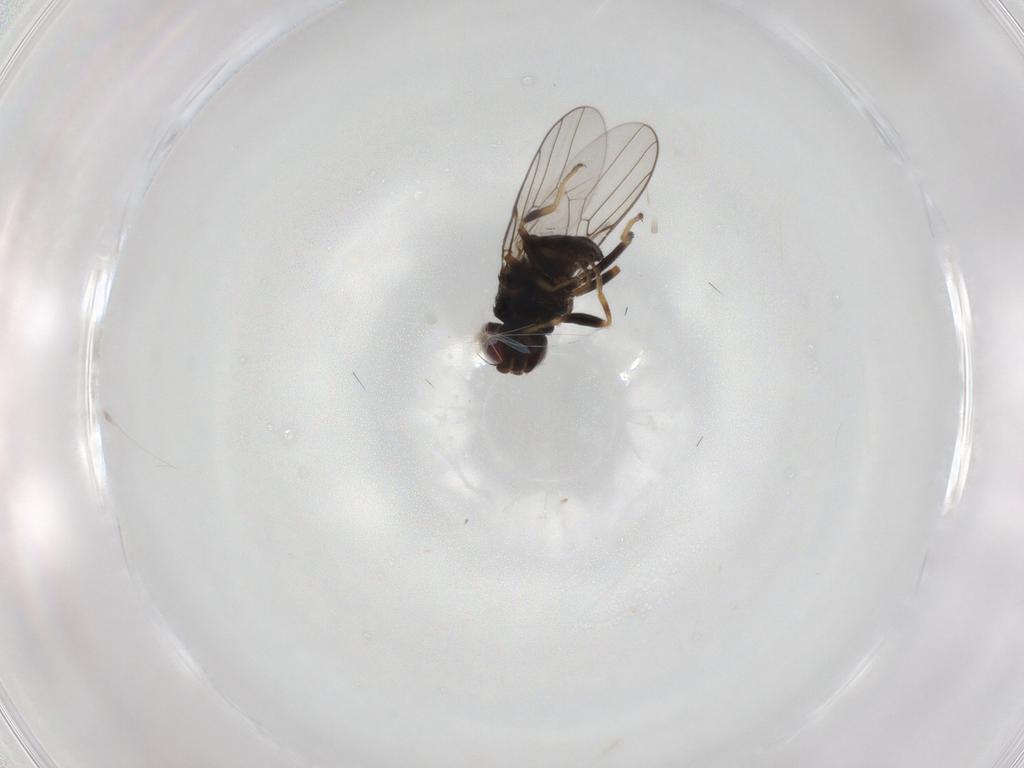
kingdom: Animalia
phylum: Arthropoda
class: Insecta
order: Diptera
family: Chloropidae
